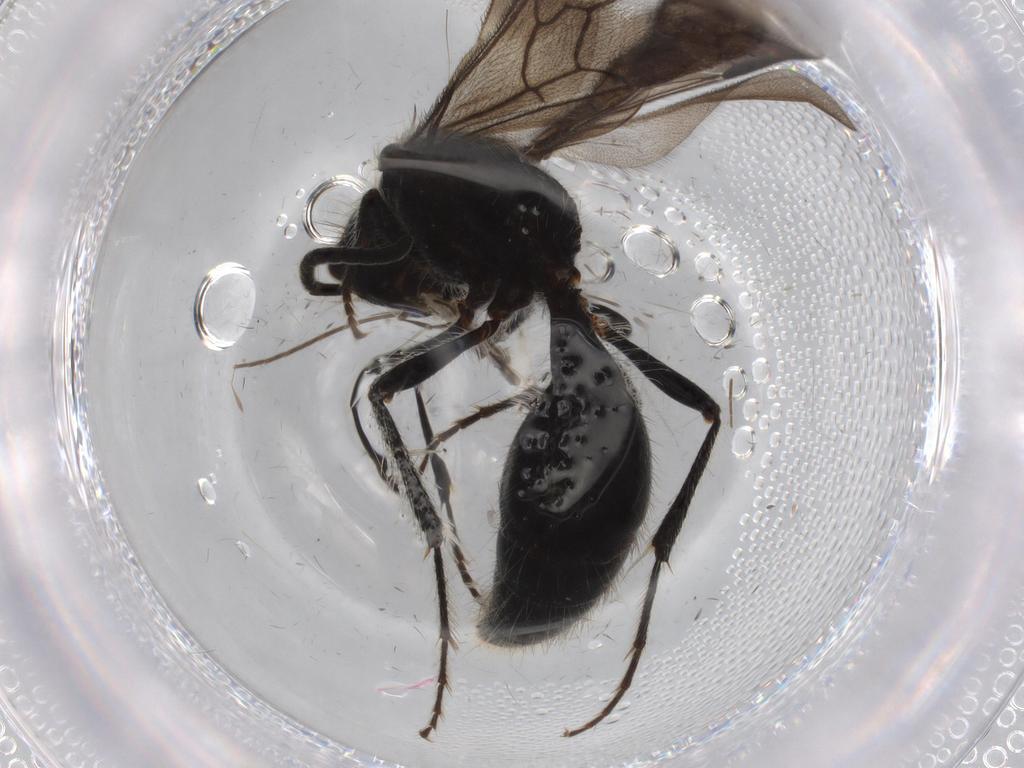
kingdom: Animalia
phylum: Arthropoda
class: Insecta
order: Hymenoptera
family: Mutillidae
